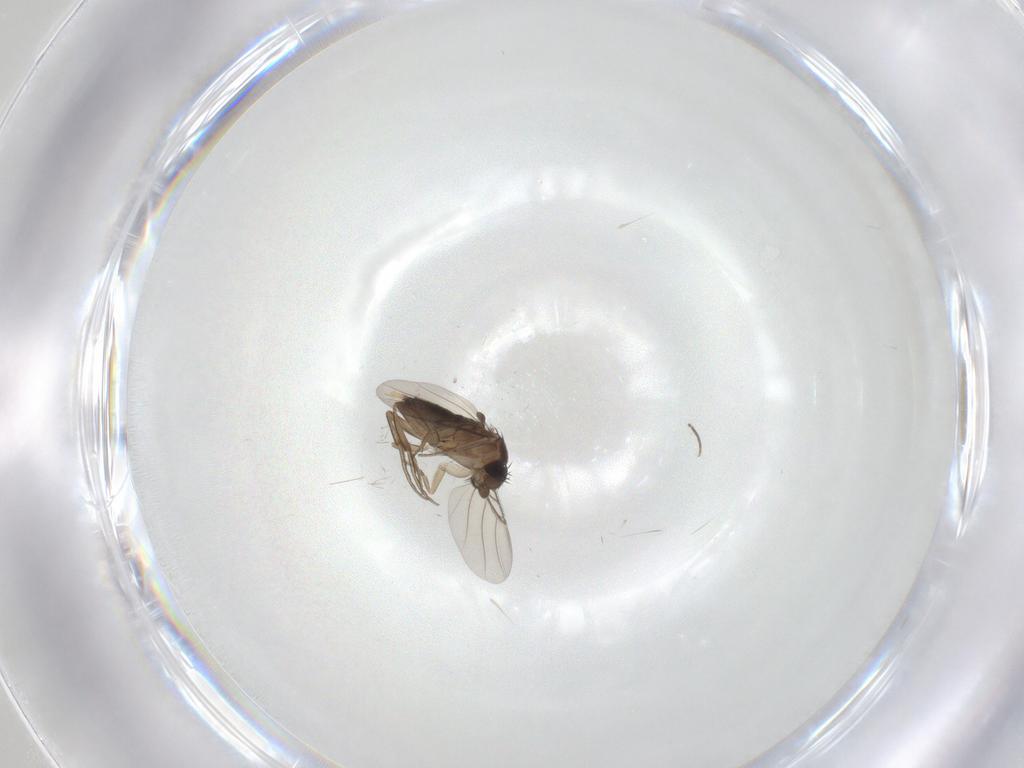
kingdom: Animalia
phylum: Arthropoda
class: Insecta
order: Diptera
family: Phoridae
